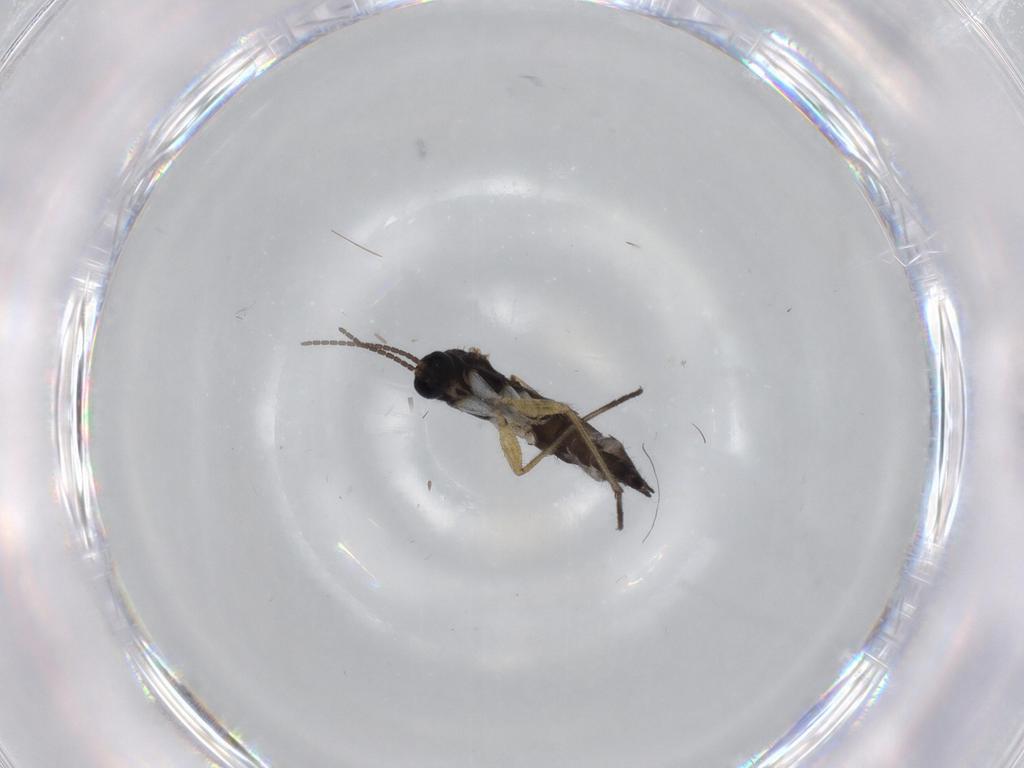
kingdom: Animalia
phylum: Arthropoda
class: Insecta
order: Diptera
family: Sciaridae
